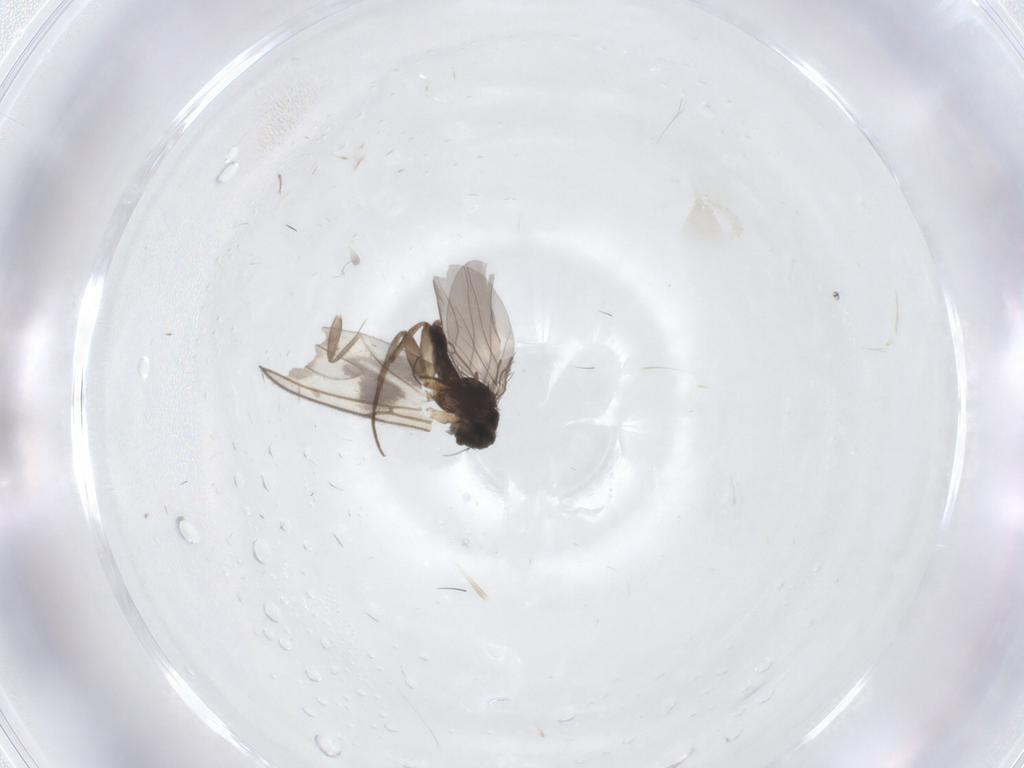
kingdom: Animalia
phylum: Arthropoda
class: Insecta
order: Diptera
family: Phoridae
